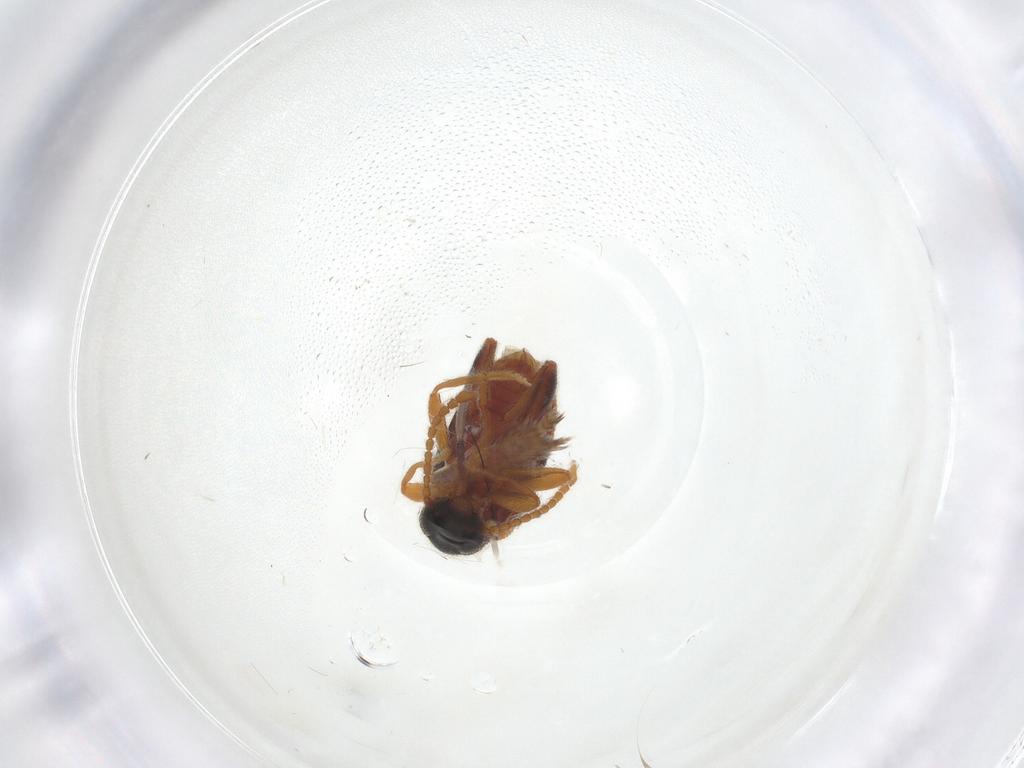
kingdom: Animalia
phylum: Arthropoda
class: Insecta
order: Coleoptera
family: Aderidae
